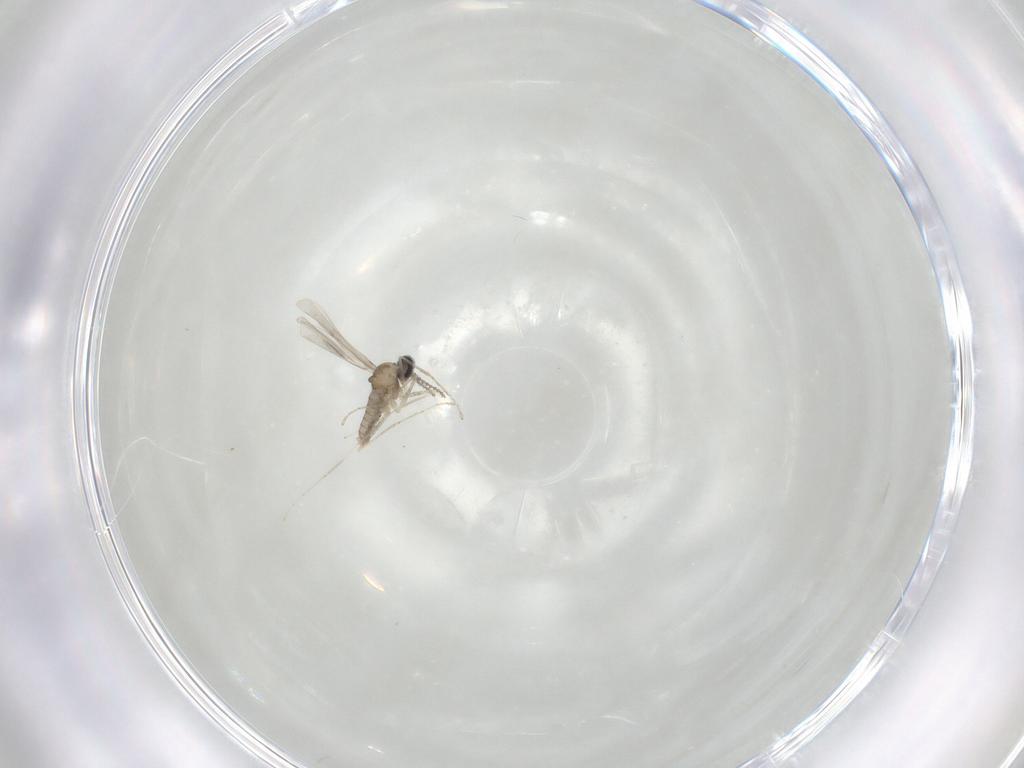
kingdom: Animalia
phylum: Arthropoda
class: Insecta
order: Diptera
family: Cecidomyiidae
